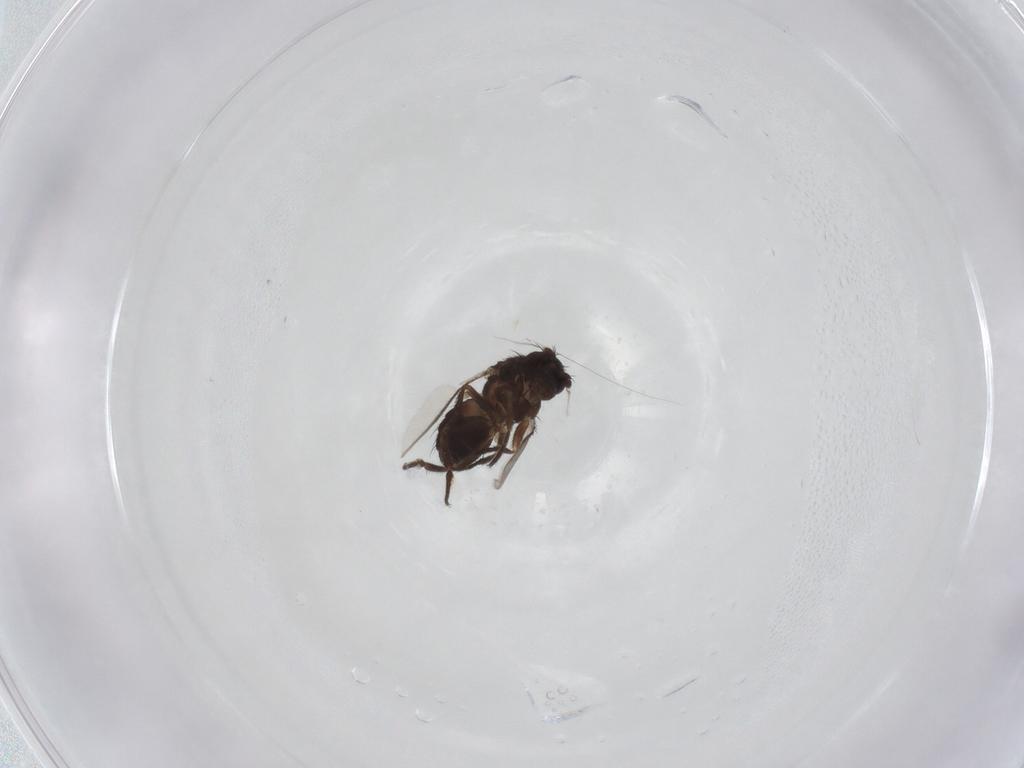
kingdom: Animalia
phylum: Arthropoda
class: Insecta
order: Diptera
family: Sphaeroceridae
